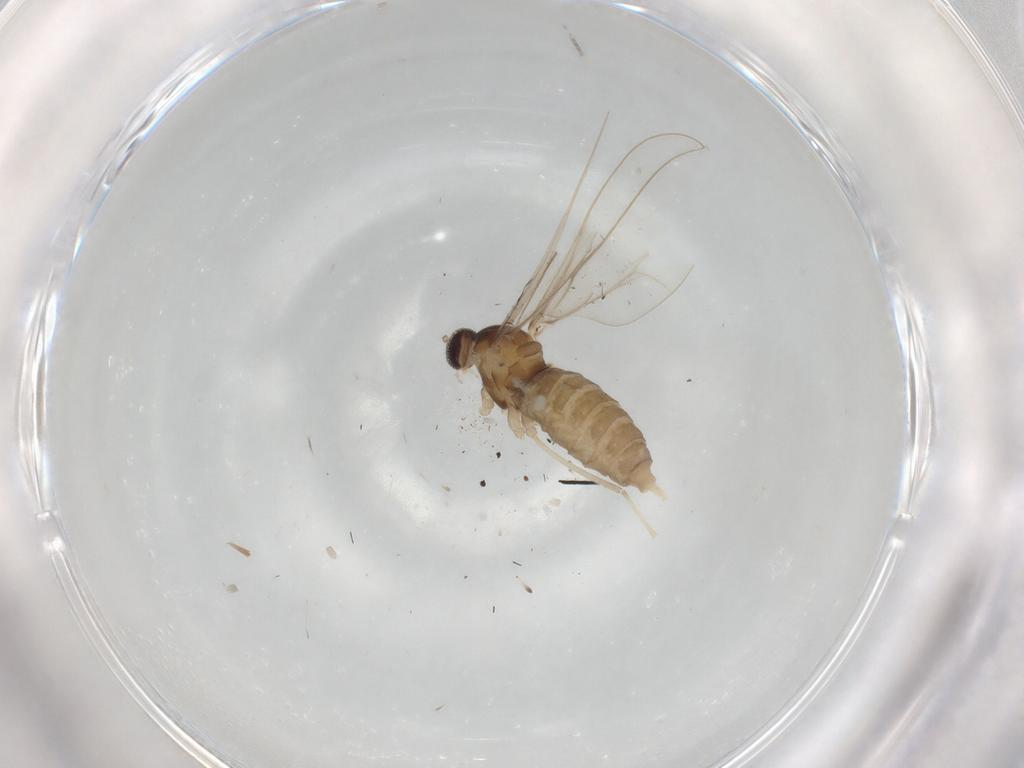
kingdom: Animalia
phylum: Arthropoda
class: Insecta
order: Diptera
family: Cecidomyiidae
